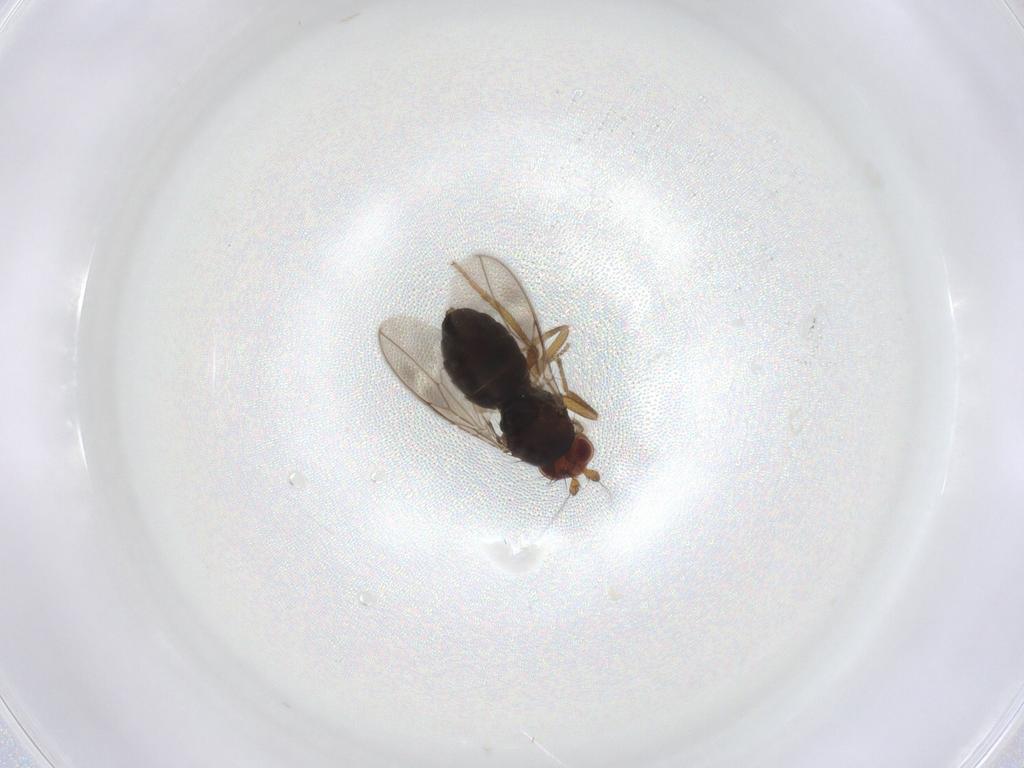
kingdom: Animalia
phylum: Arthropoda
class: Insecta
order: Diptera
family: Sphaeroceridae
